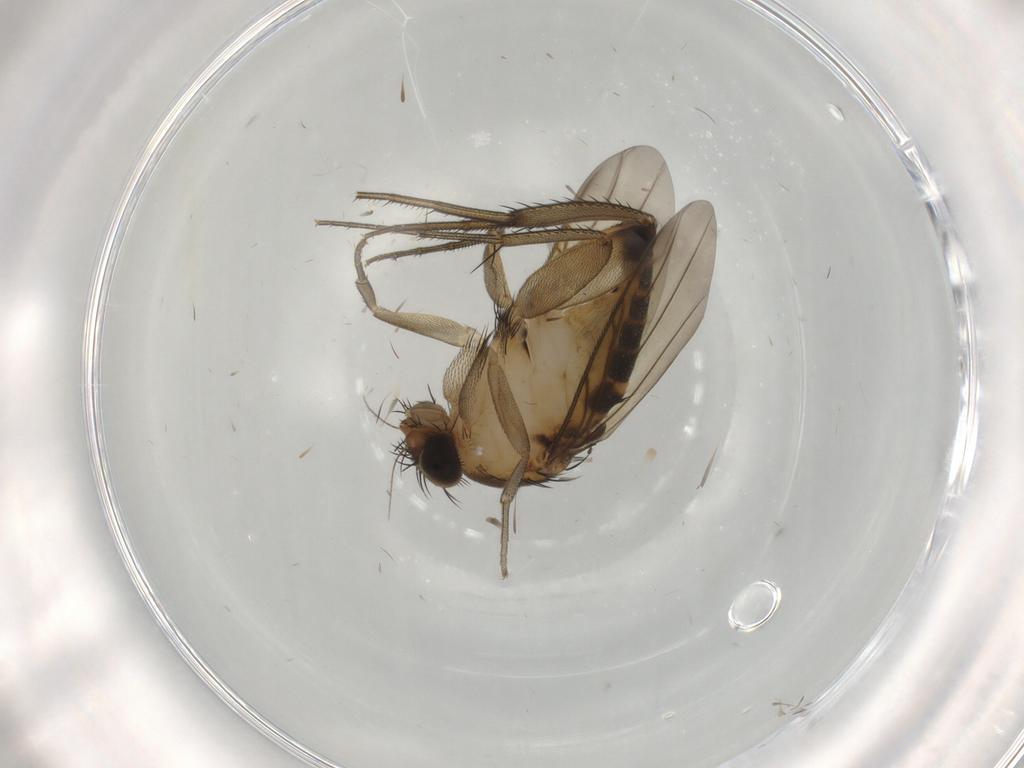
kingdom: Animalia
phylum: Arthropoda
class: Insecta
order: Diptera
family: Phoridae
